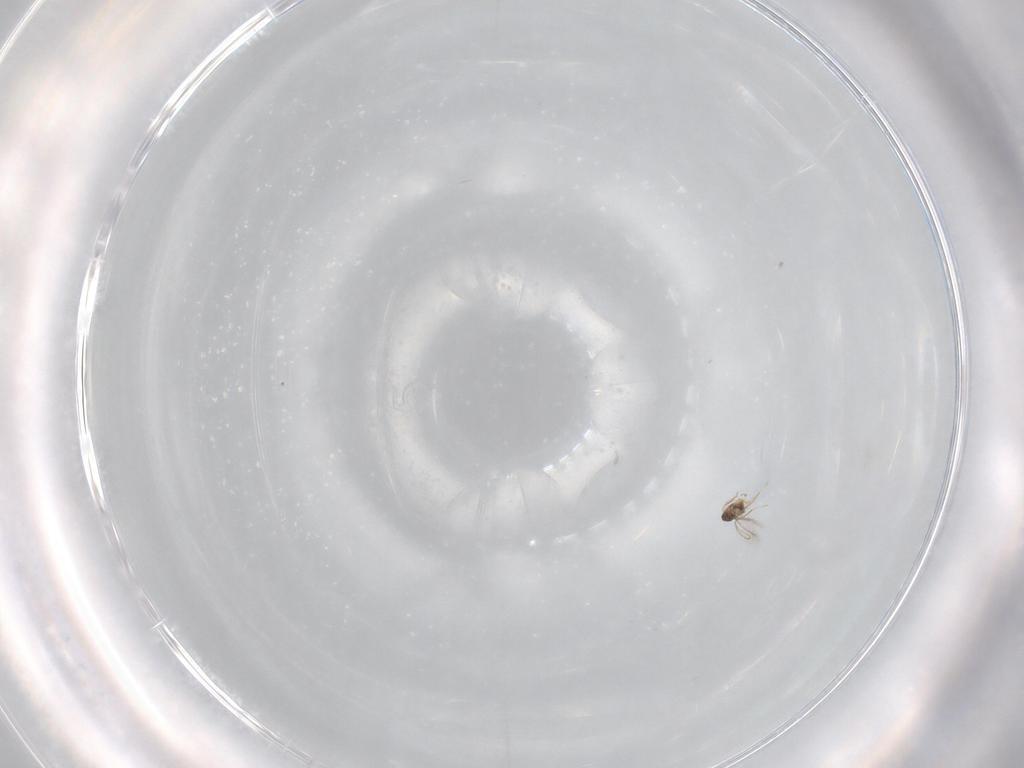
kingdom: Animalia
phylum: Arthropoda
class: Insecta
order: Hymenoptera
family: Mymaridae
